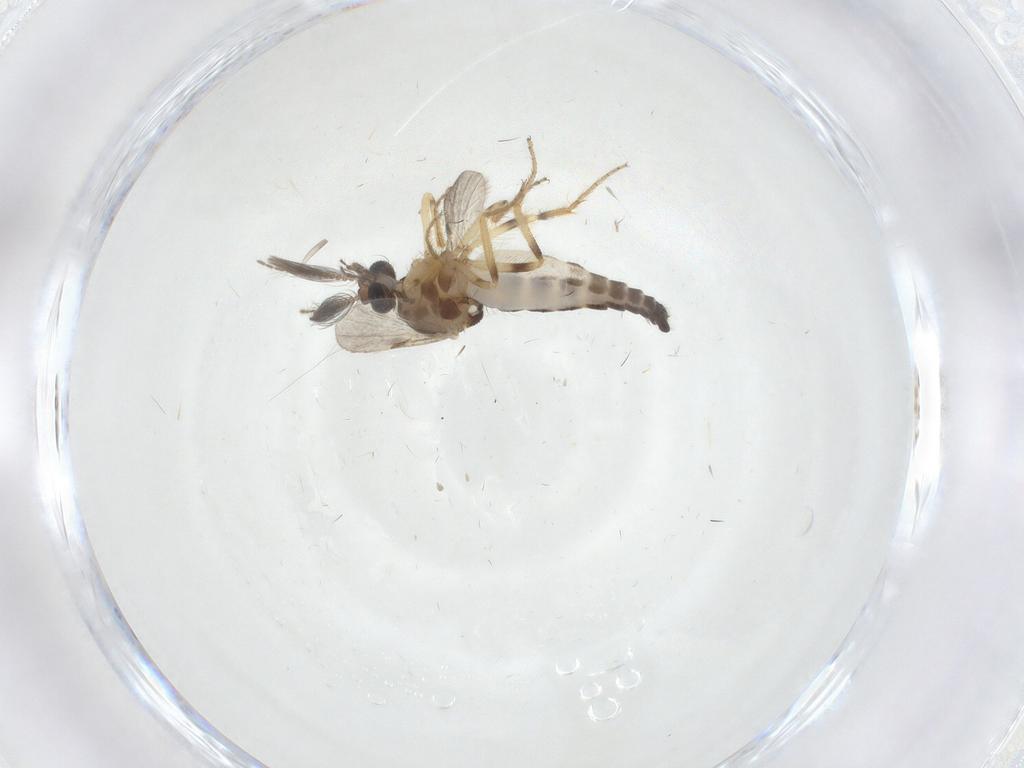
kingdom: Animalia
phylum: Arthropoda
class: Insecta
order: Diptera
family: Ceratopogonidae
